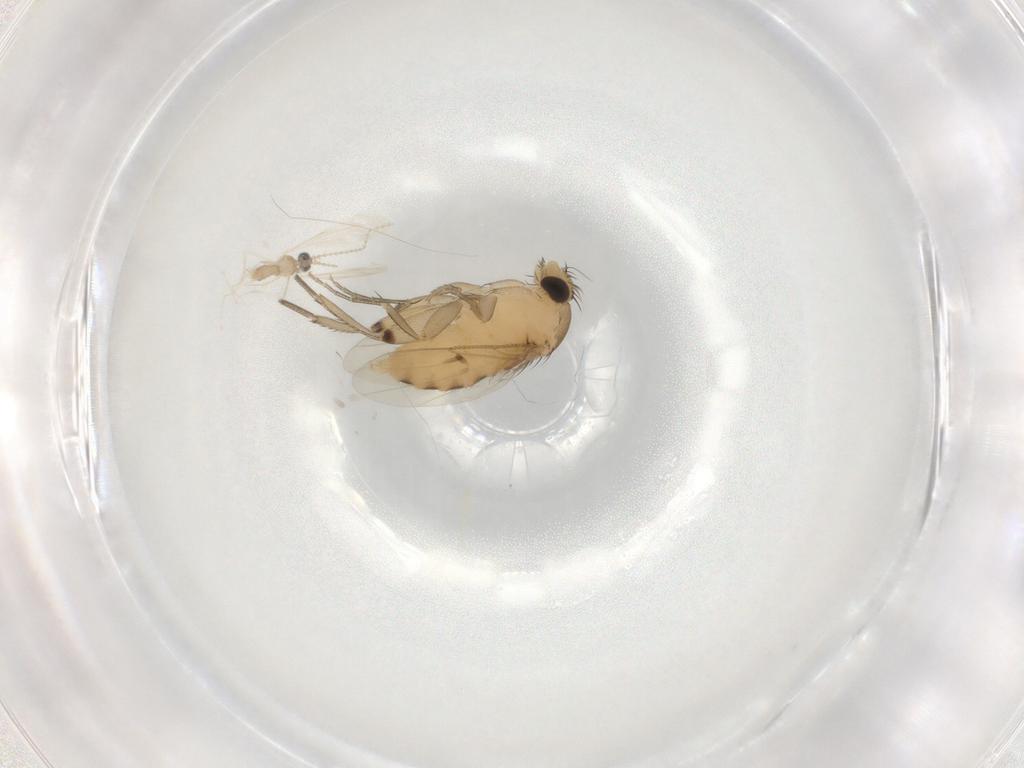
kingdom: Animalia
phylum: Arthropoda
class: Insecta
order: Diptera
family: Phoridae
